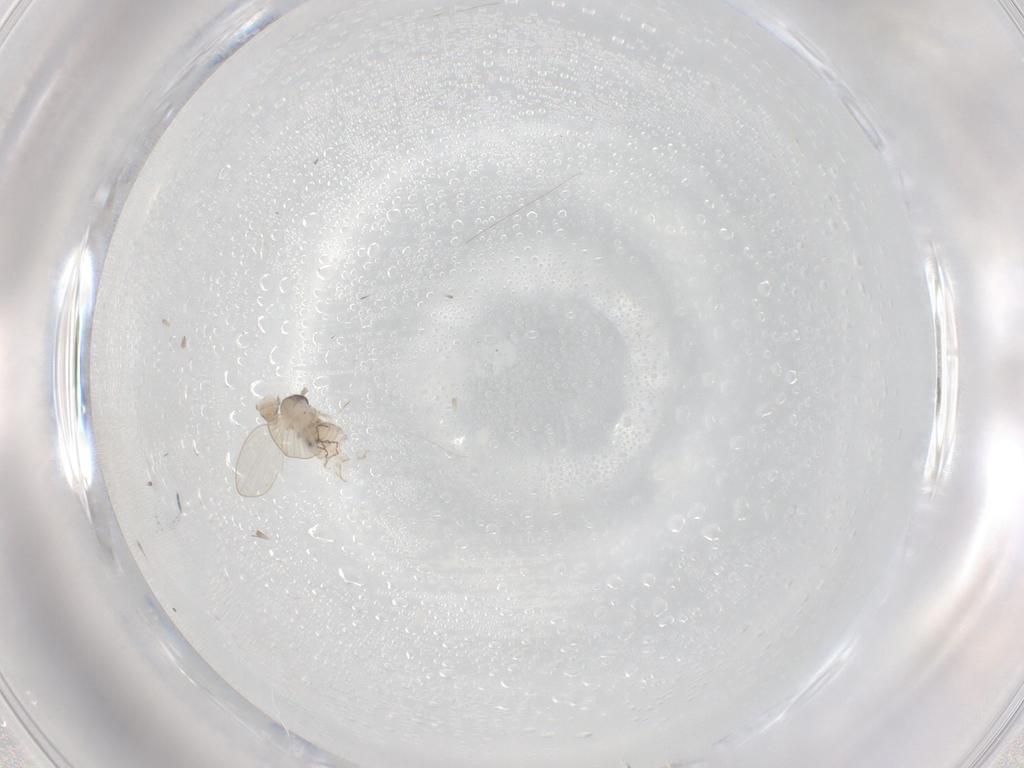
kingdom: Animalia
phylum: Arthropoda
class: Insecta
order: Diptera
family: Psychodidae
